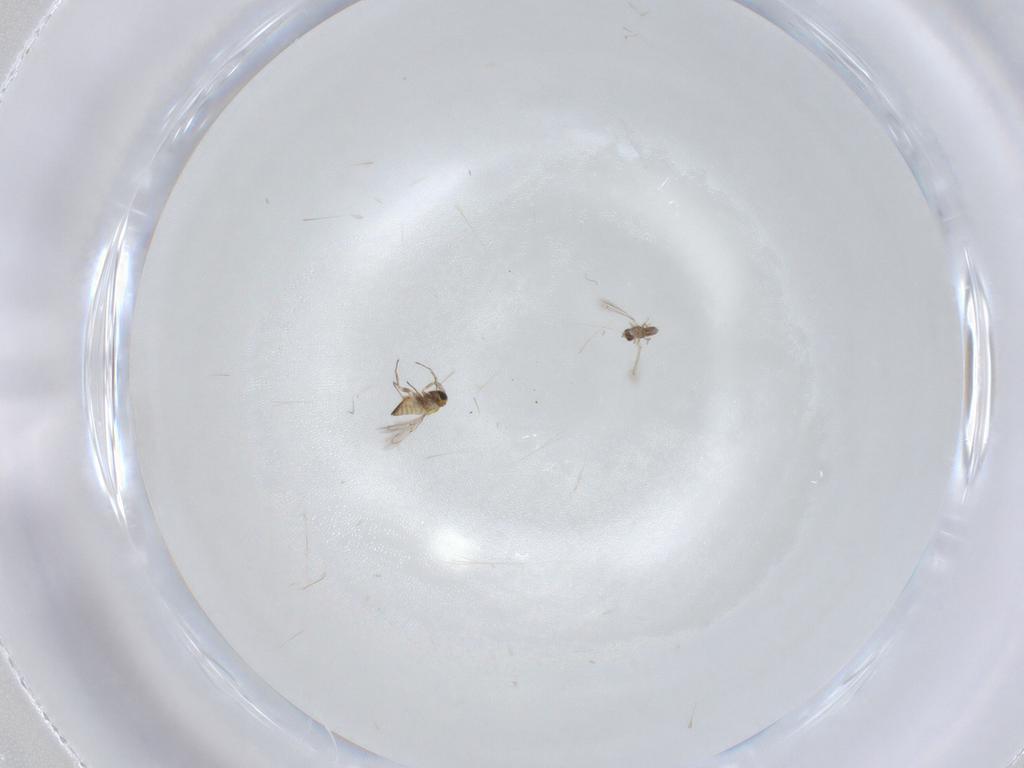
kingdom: Animalia
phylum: Arthropoda
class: Insecta
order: Hymenoptera
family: Trichogrammatidae
